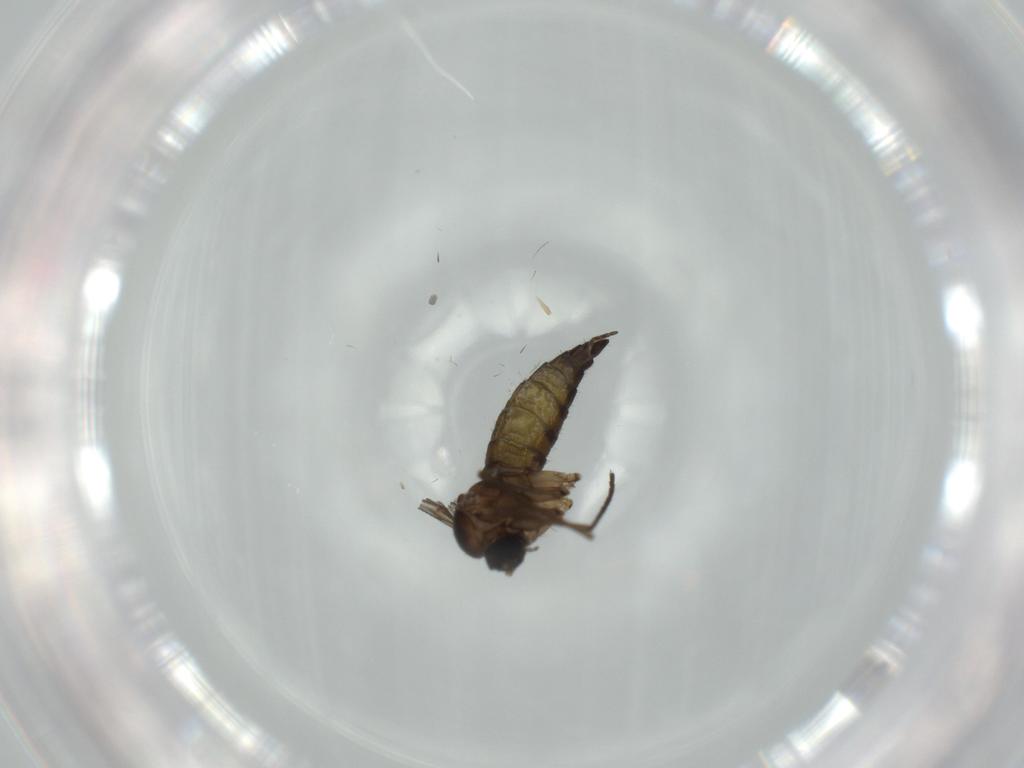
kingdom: Animalia
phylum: Arthropoda
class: Insecta
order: Diptera
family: Sciaridae
